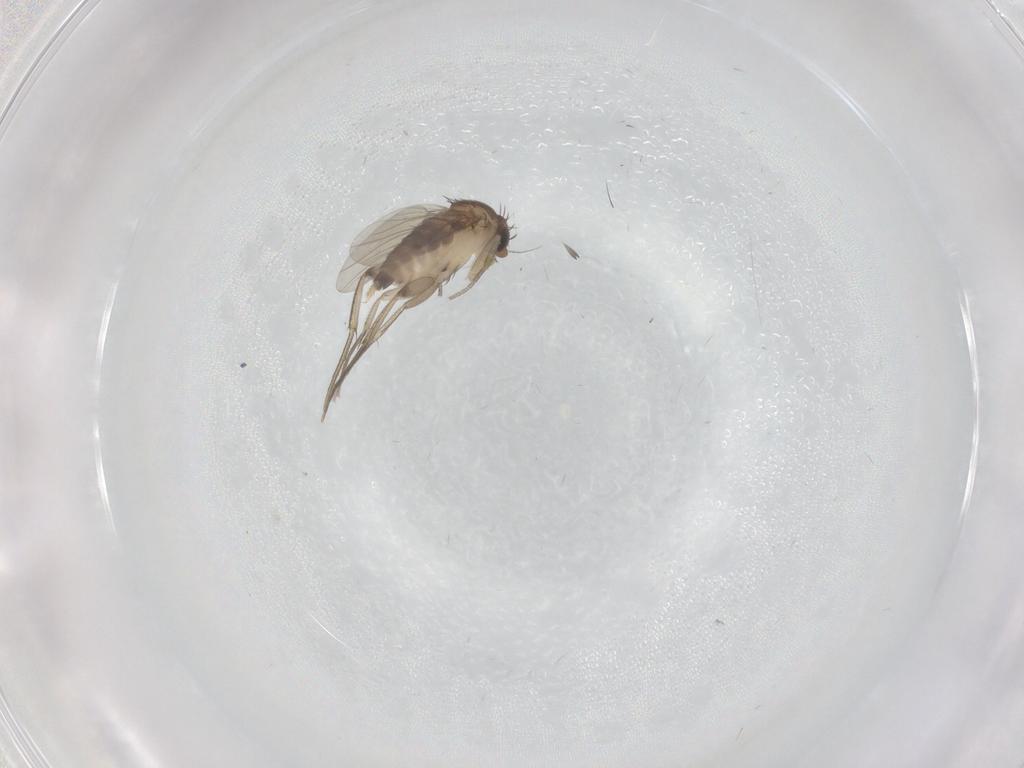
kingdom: Animalia
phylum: Arthropoda
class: Insecta
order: Diptera
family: Phoridae
